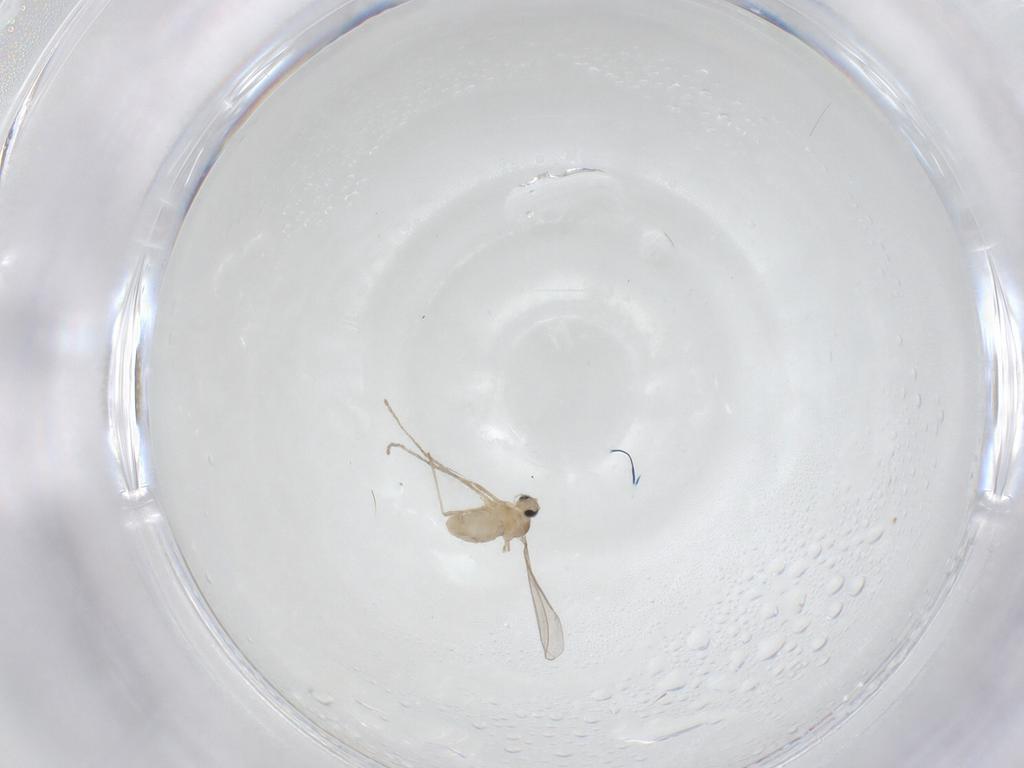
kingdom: Animalia
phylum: Arthropoda
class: Insecta
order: Diptera
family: Cecidomyiidae
